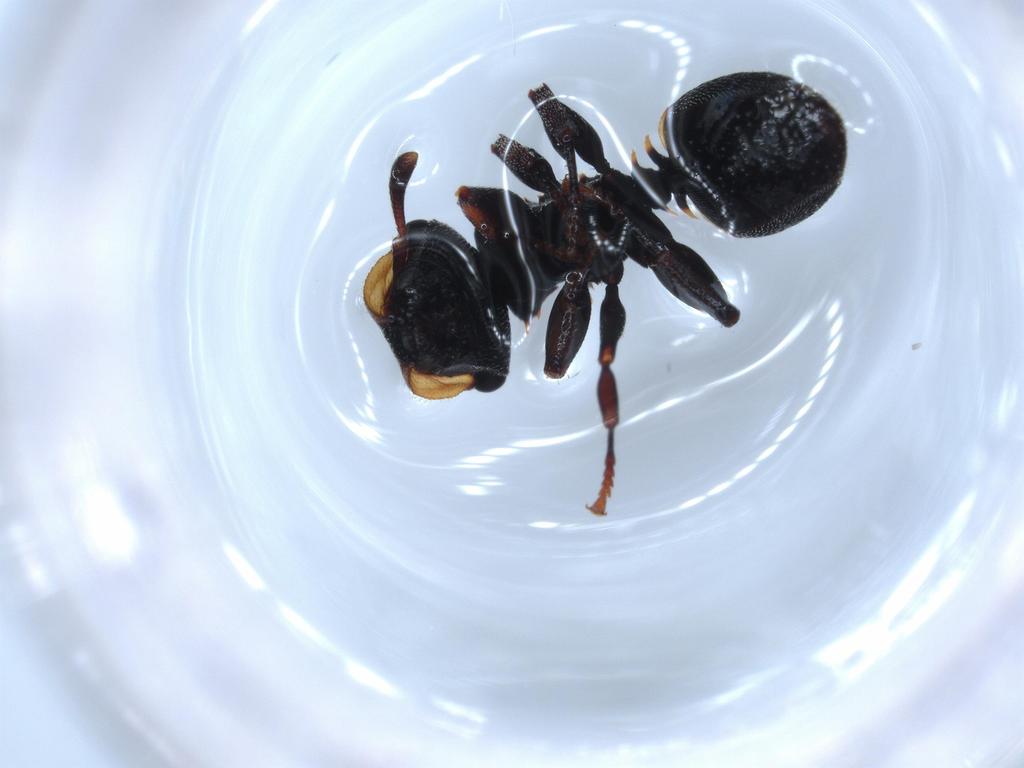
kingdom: Animalia
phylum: Arthropoda
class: Insecta
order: Hymenoptera
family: Formicidae
